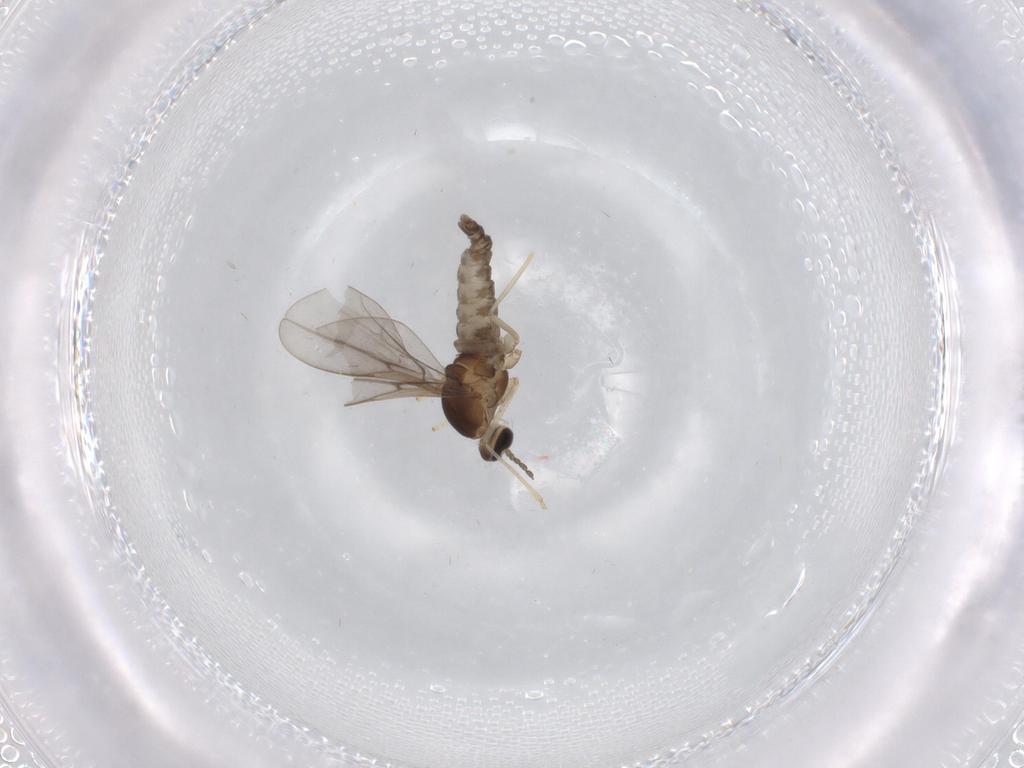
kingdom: Animalia
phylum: Arthropoda
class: Insecta
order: Diptera
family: Cecidomyiidae
